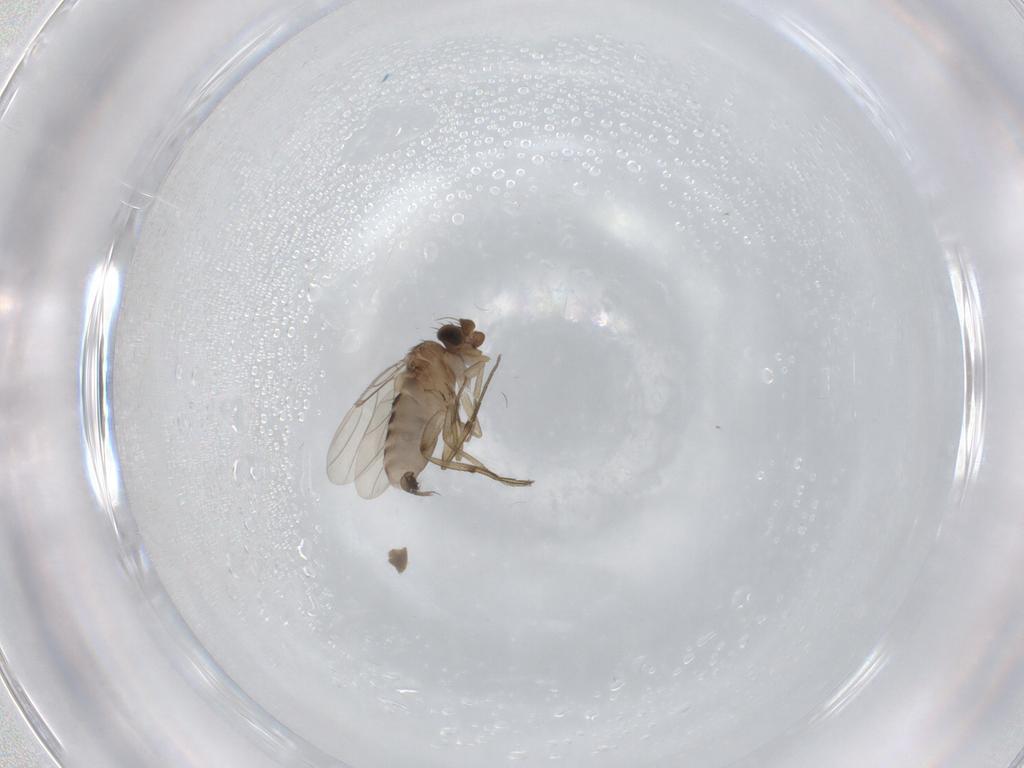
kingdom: Animalia
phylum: Arthropoda
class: Insecta
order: Diptera
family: Phoridae
